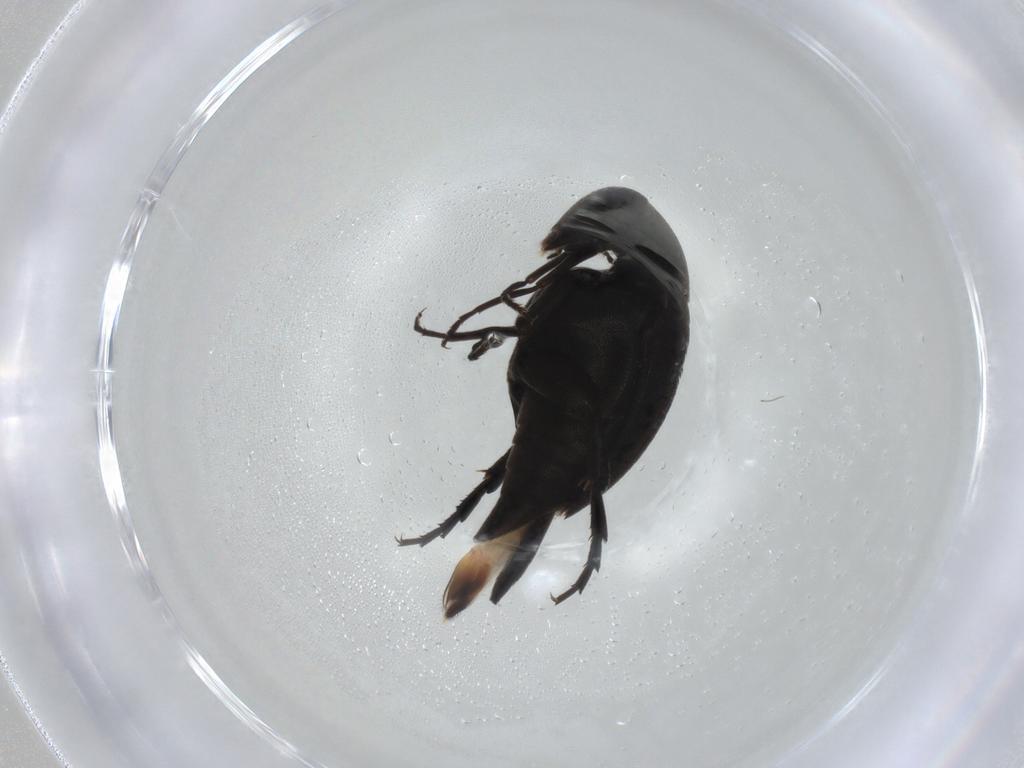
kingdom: Animalia
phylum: Arthropoda
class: Insecta
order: Coleoptera
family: Mordellidae
